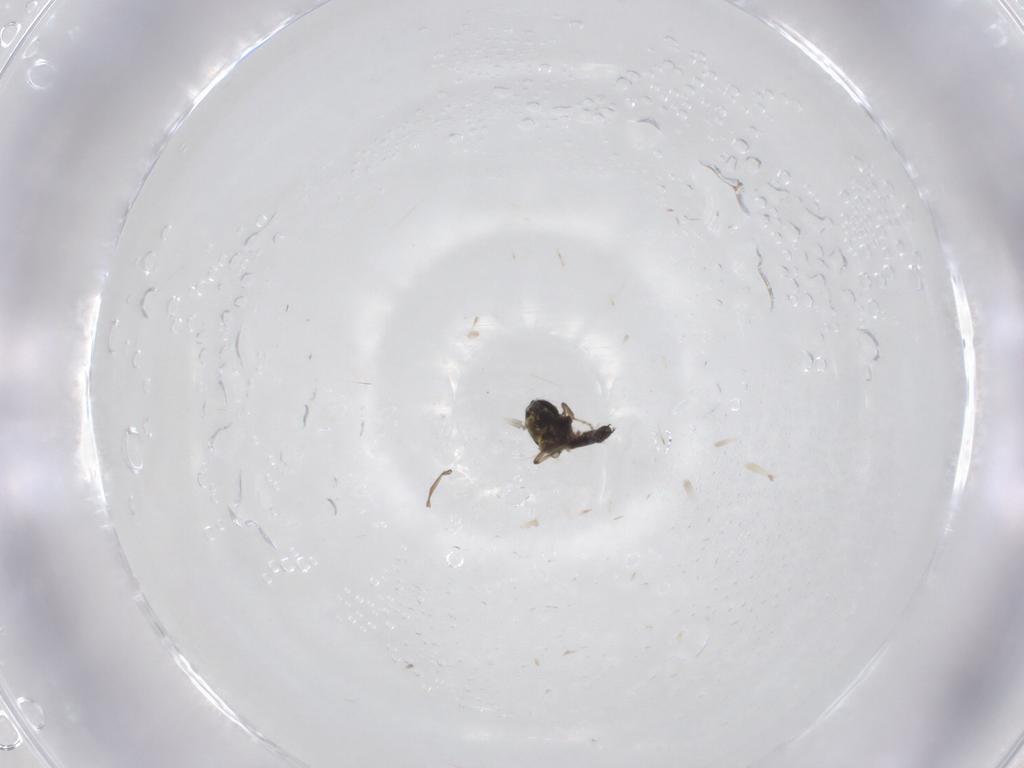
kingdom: Animalia
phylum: Arthropoda
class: Insecta
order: Diptera
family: Ceratopogonidae
